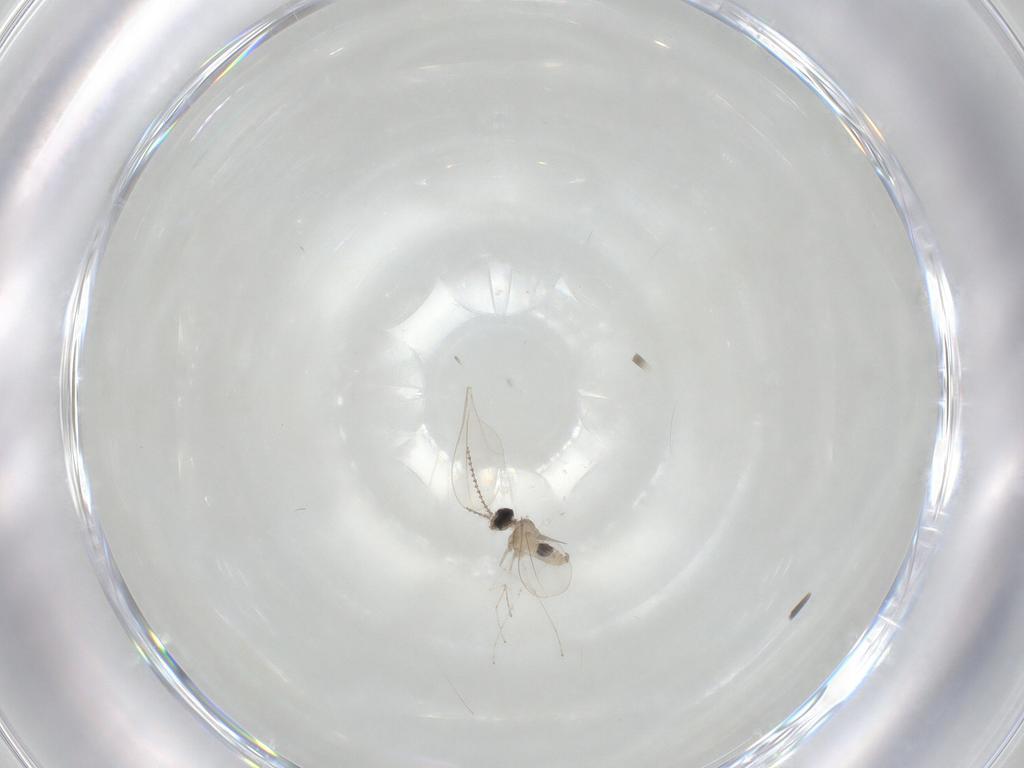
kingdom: Animalia
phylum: Arthropoda
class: Insecta
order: Diptera
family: Cecidomyiidae
